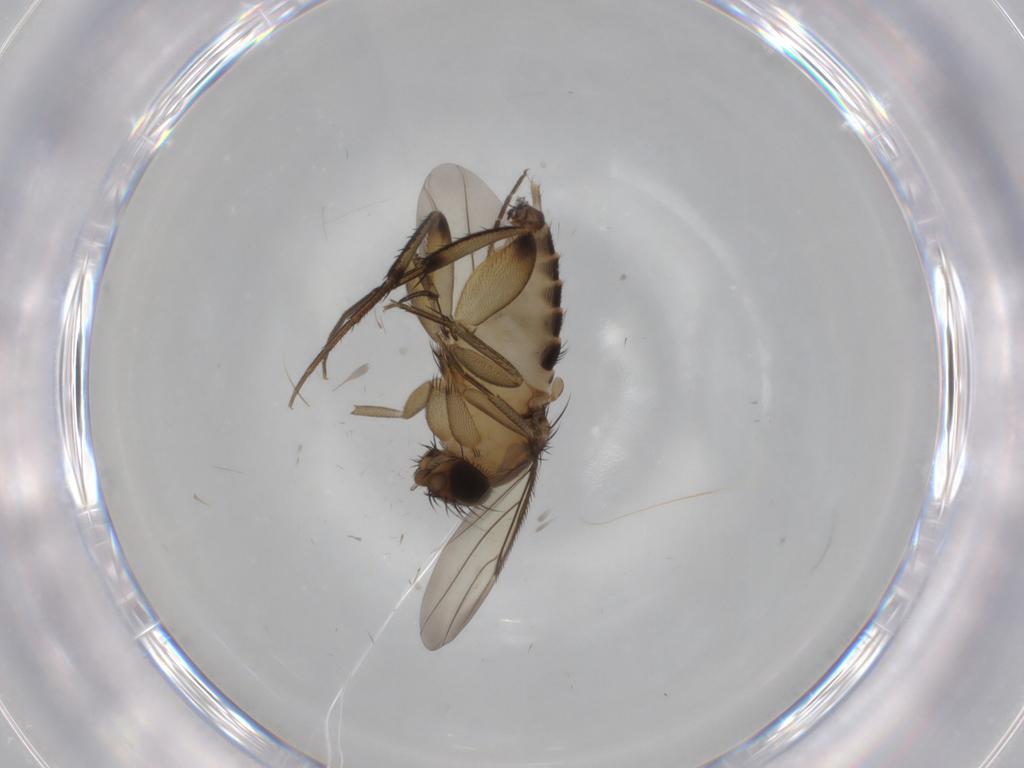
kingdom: Animalia
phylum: Arthropoda
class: Insecta
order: Diptera
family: Phoridae
